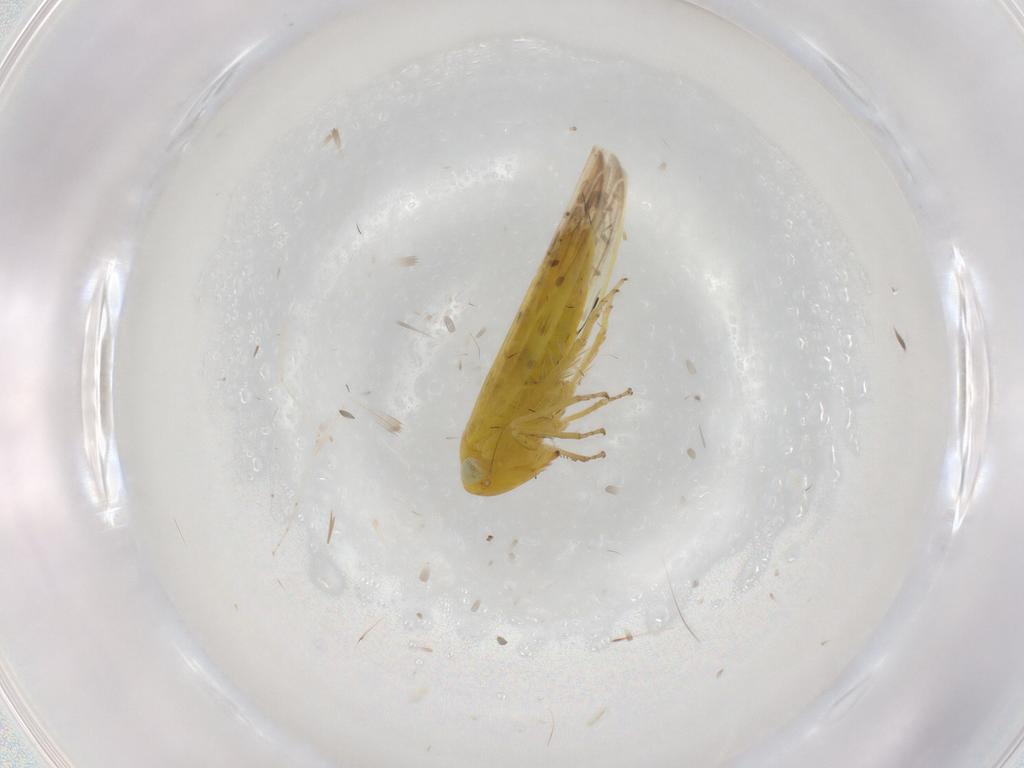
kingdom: Animalia
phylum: Arthropoda
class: Insecta
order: Hemiptera
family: Cicadellidae
